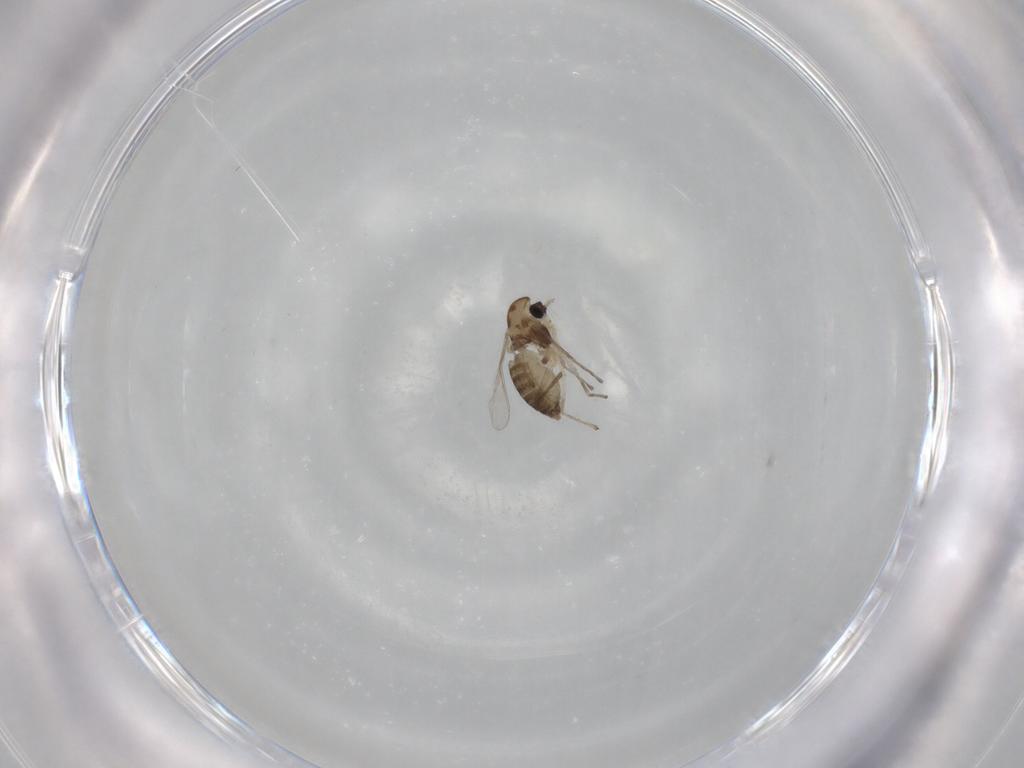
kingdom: Animalia
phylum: Arthropoda
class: Insecta
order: Diptera
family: Chironomidae
